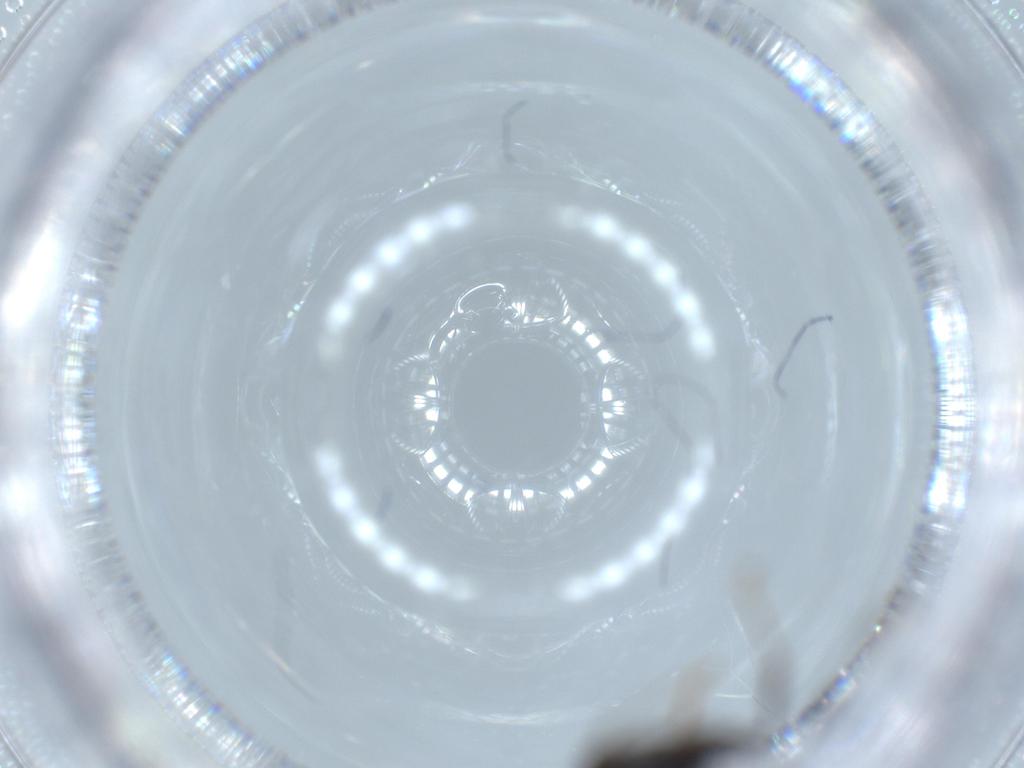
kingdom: Animalia
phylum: Arthropoda
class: Insecta
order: Hymenoptera
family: Formicidae
